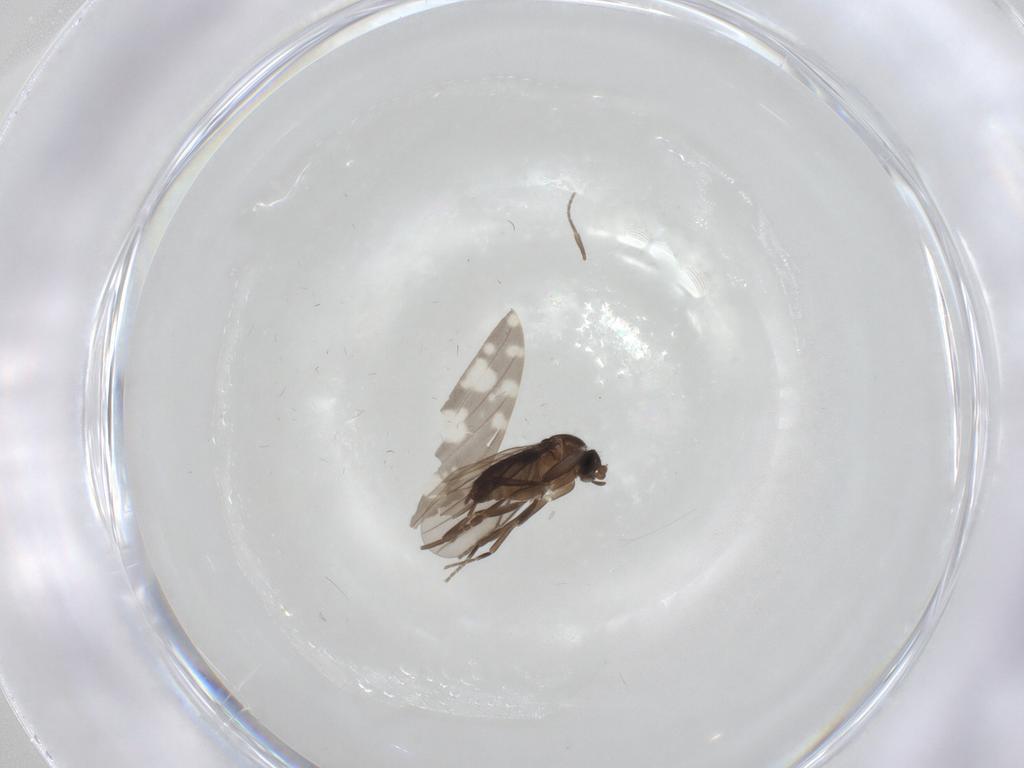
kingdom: Animalia
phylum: Arthropoda
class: Insecta
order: Diptera
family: Phoridae
